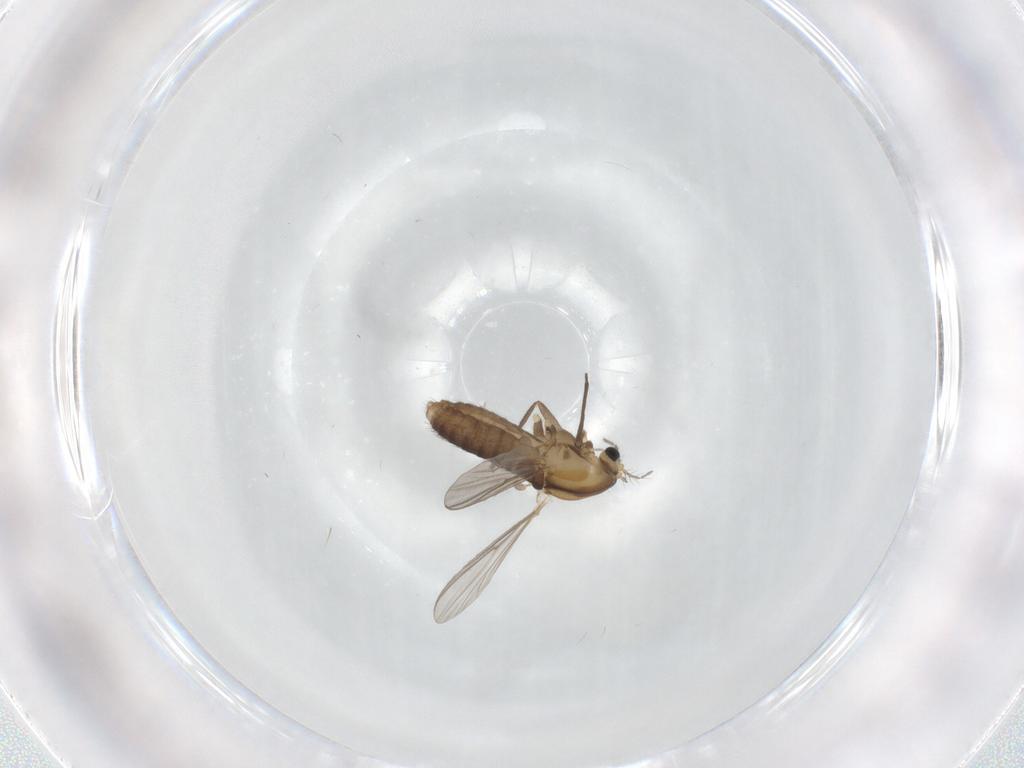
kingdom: Animalia
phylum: Arthropoda
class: Insecta
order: Diptera
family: Chironomidae
